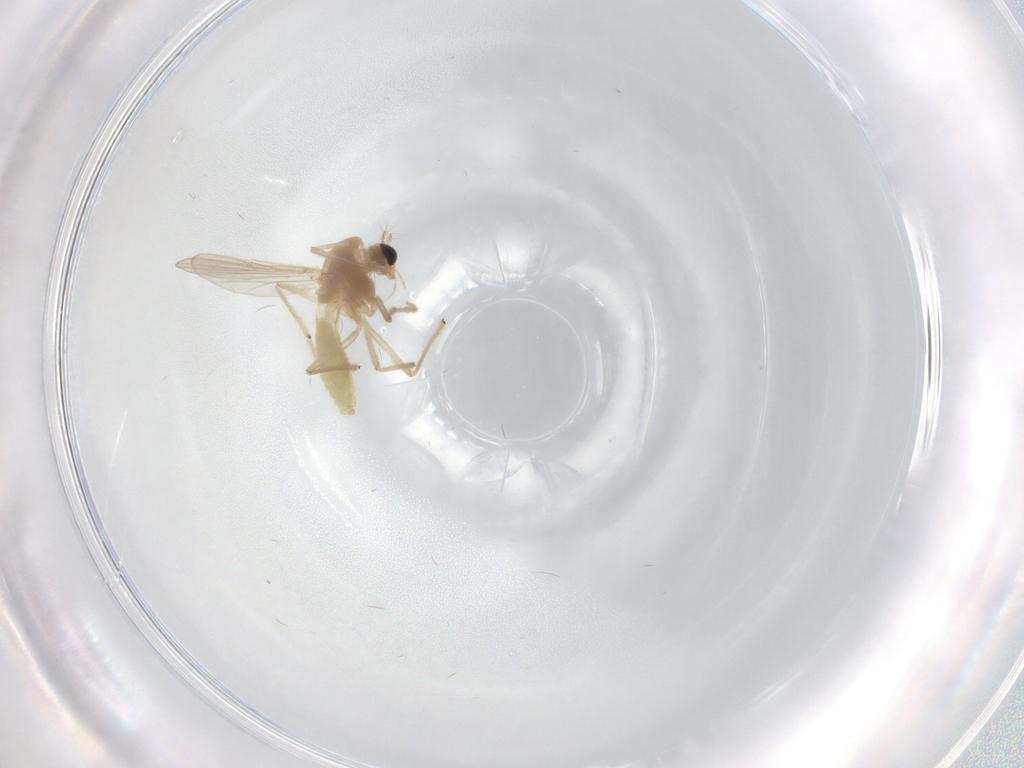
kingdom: Animalia
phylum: Arthropoda
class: Insecta
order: Diptera
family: Chironomidae
